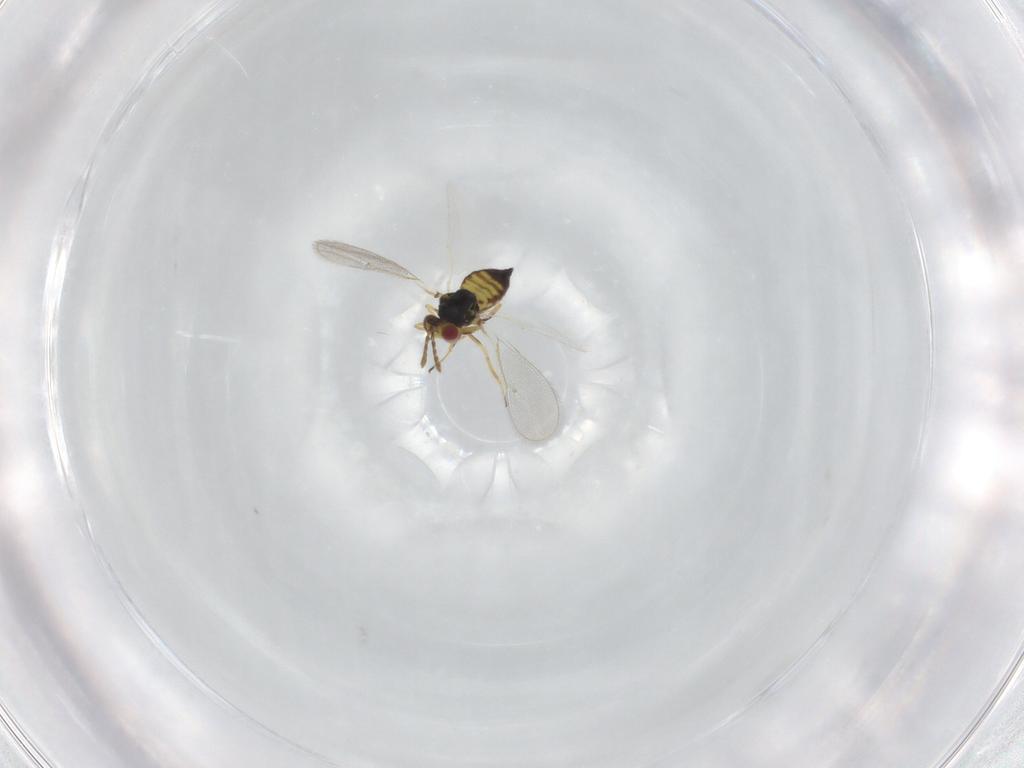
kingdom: Animalia
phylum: Arthropoda
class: Insecta
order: Hymenoptera
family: Eulophidae
